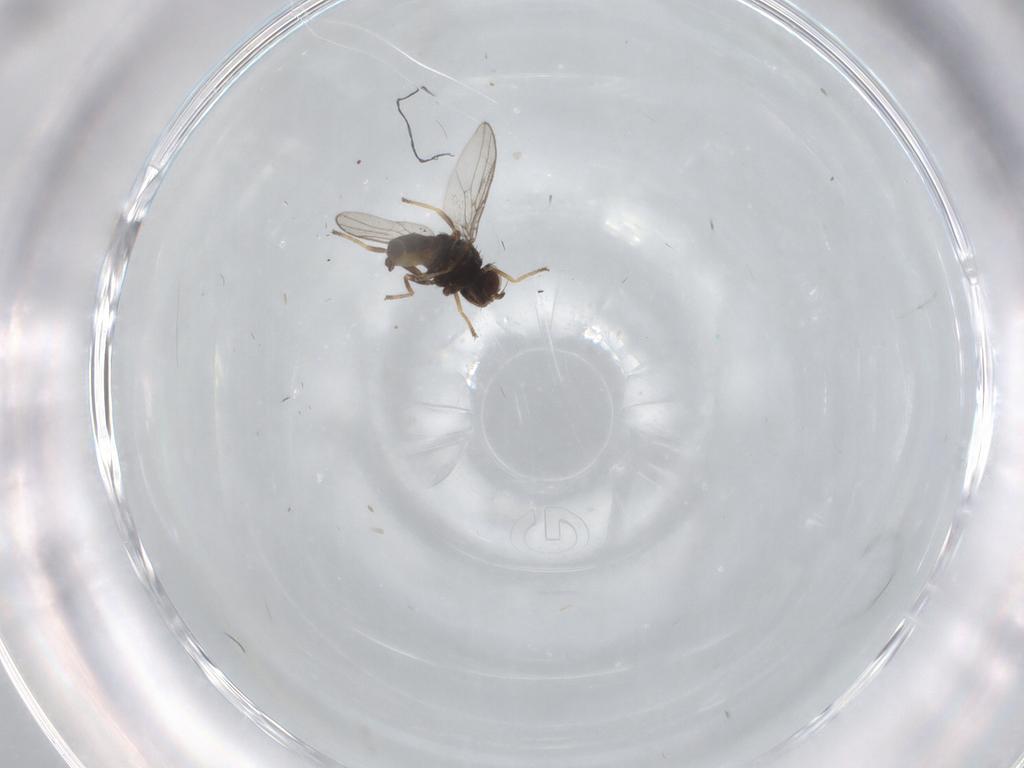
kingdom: Animalia
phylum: Arthropoda
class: Insecta
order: Diptera
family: Chloropidae
